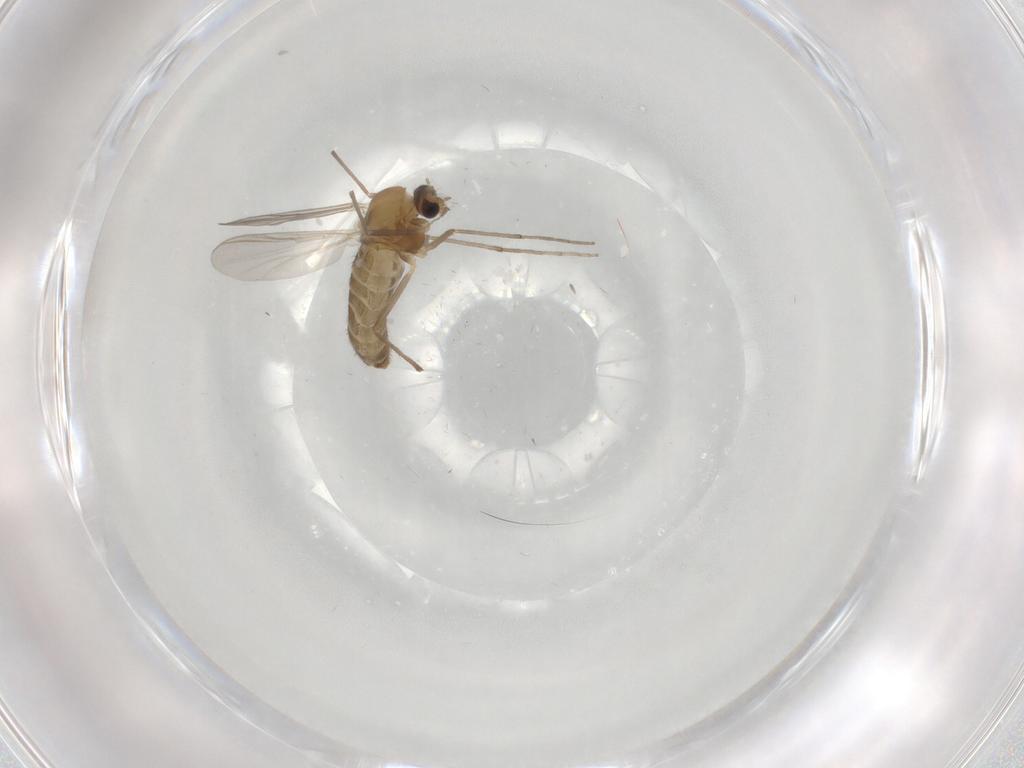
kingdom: Animalia
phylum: Arthropoda
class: Insecta
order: Diptera
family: Chironomidae
